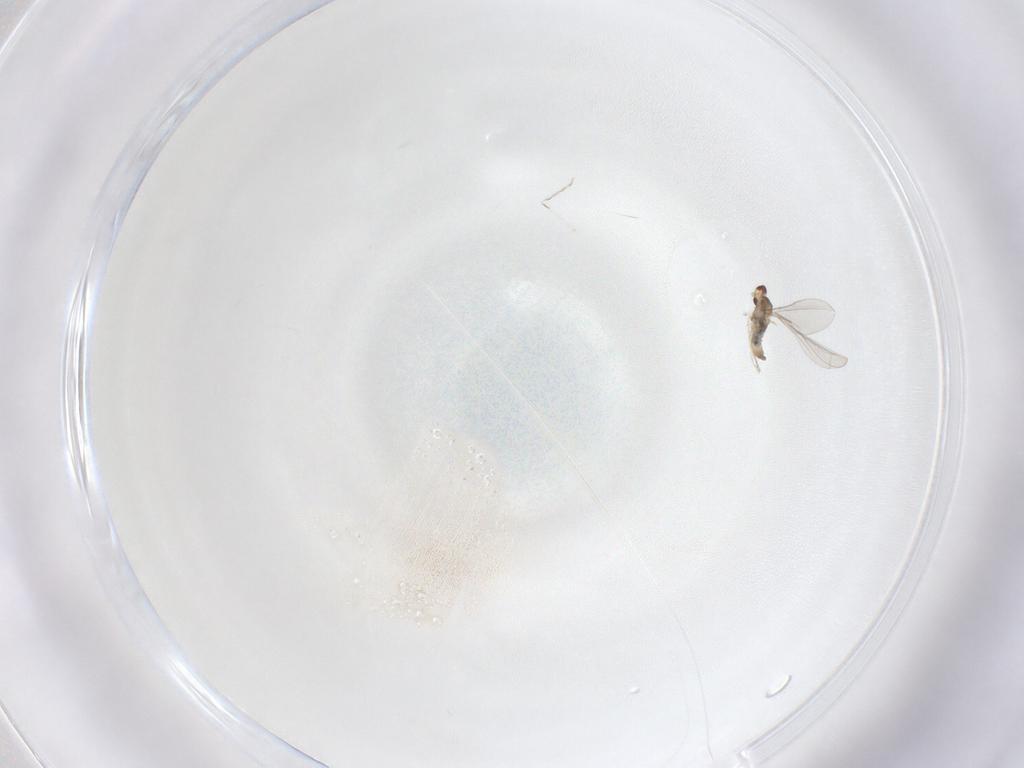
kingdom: Animalia
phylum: Arthropoda
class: Insecta
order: Diptera
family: Cecidomyiidae
